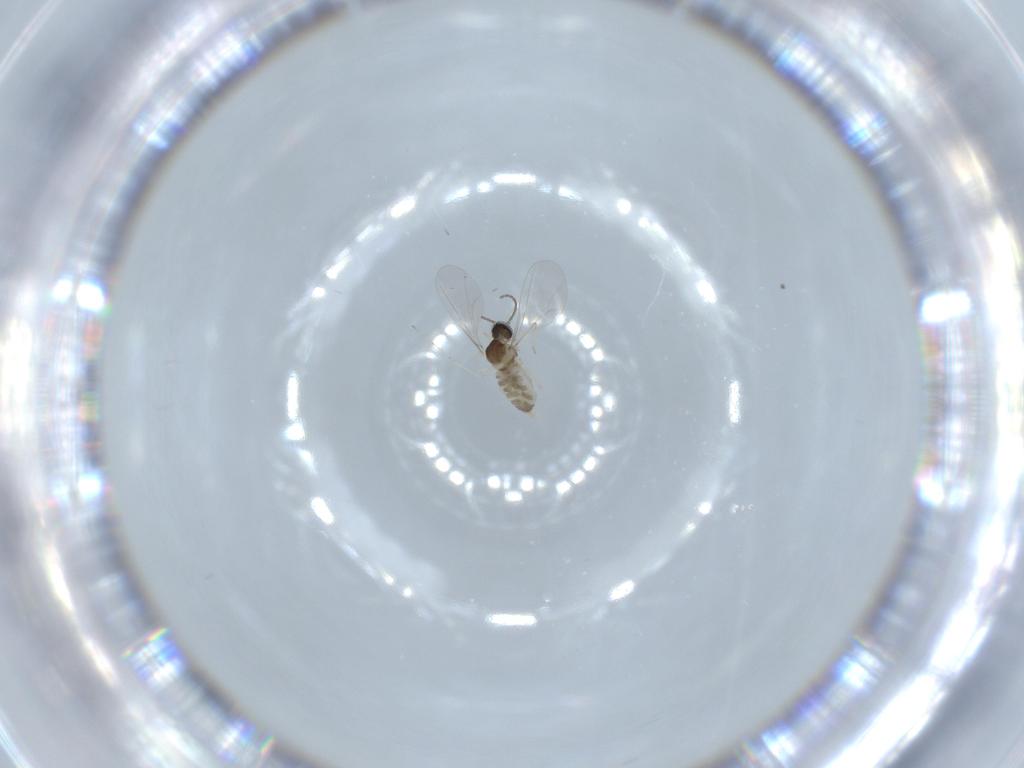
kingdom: Animalia
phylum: Arthropoda
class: Insecta
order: Diptera
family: Cecidomyiidae
